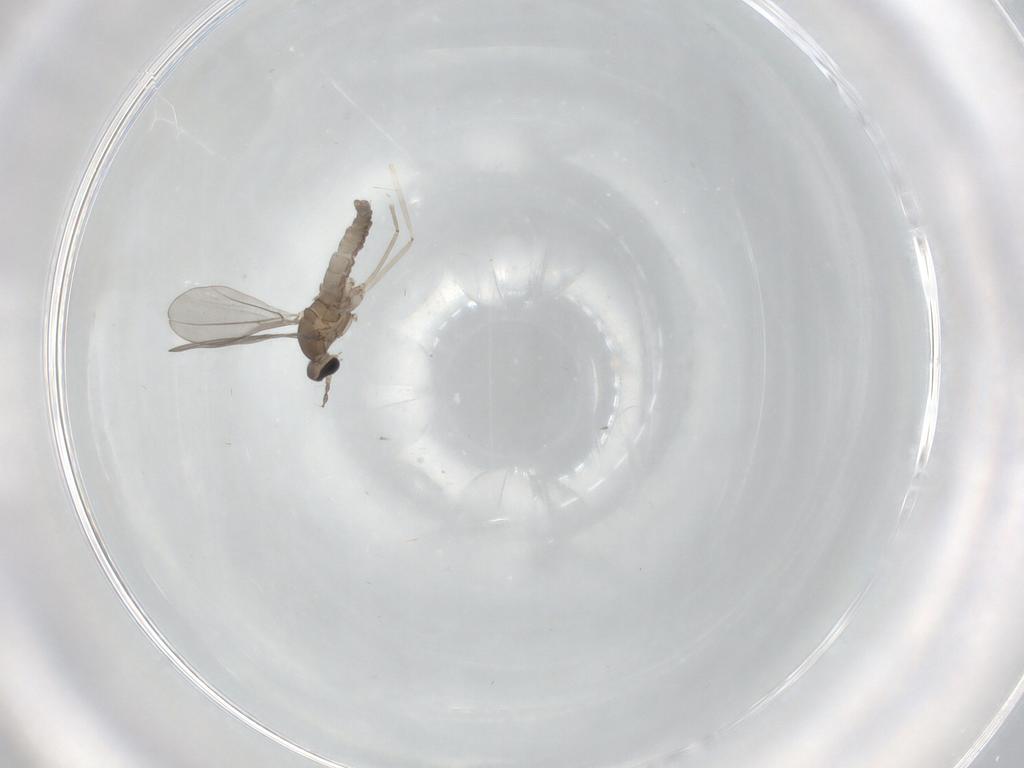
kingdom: Animalia
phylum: Arthropoda
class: Insecta
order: Diptera
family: Cecidomyiidae
